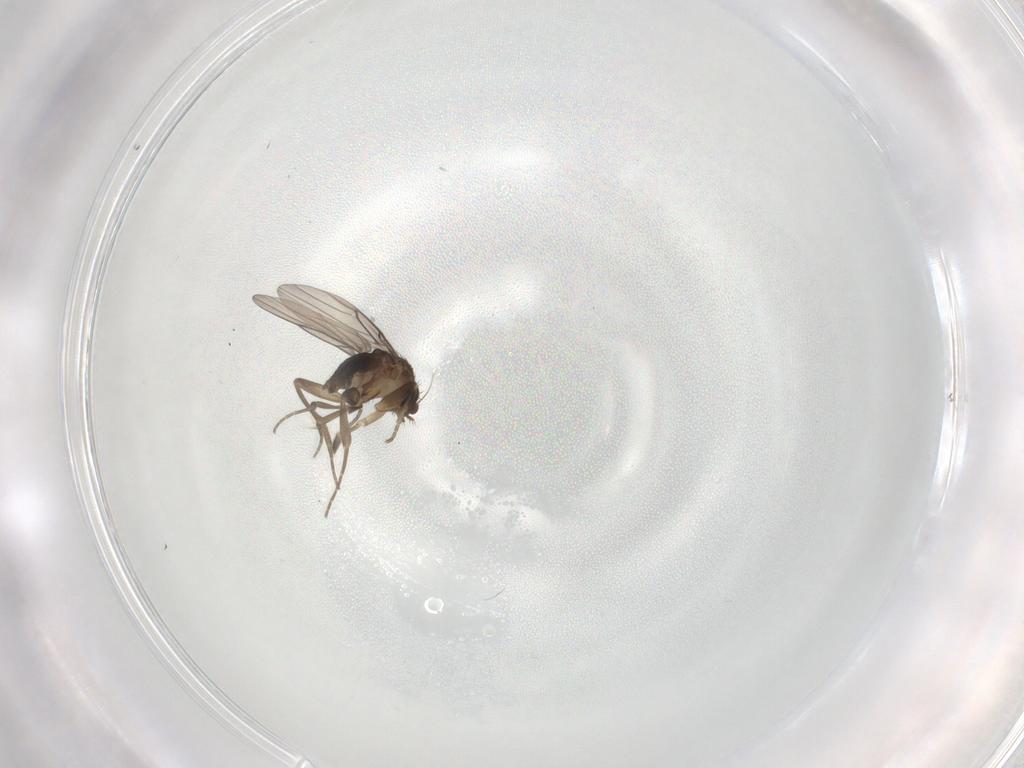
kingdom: Animalia
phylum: Arthropoda
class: Insecta
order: Diptera
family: Phoridae
